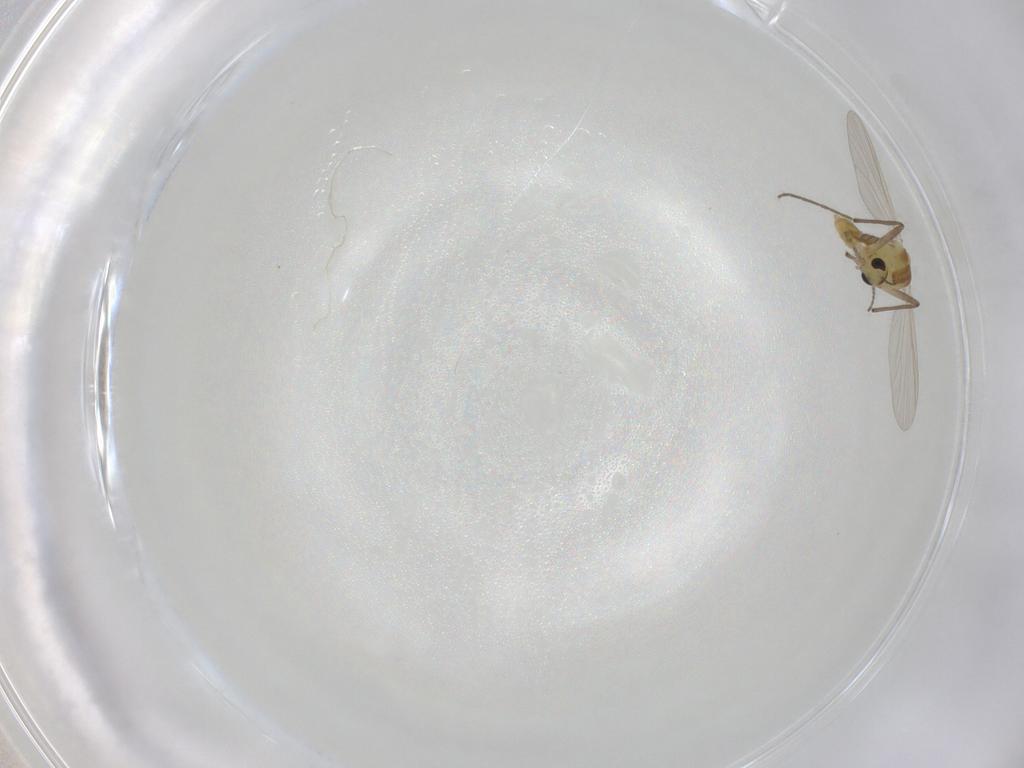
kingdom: Animalia
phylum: Arthropoda
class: Insecta
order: Diptera
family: Chironomidae
